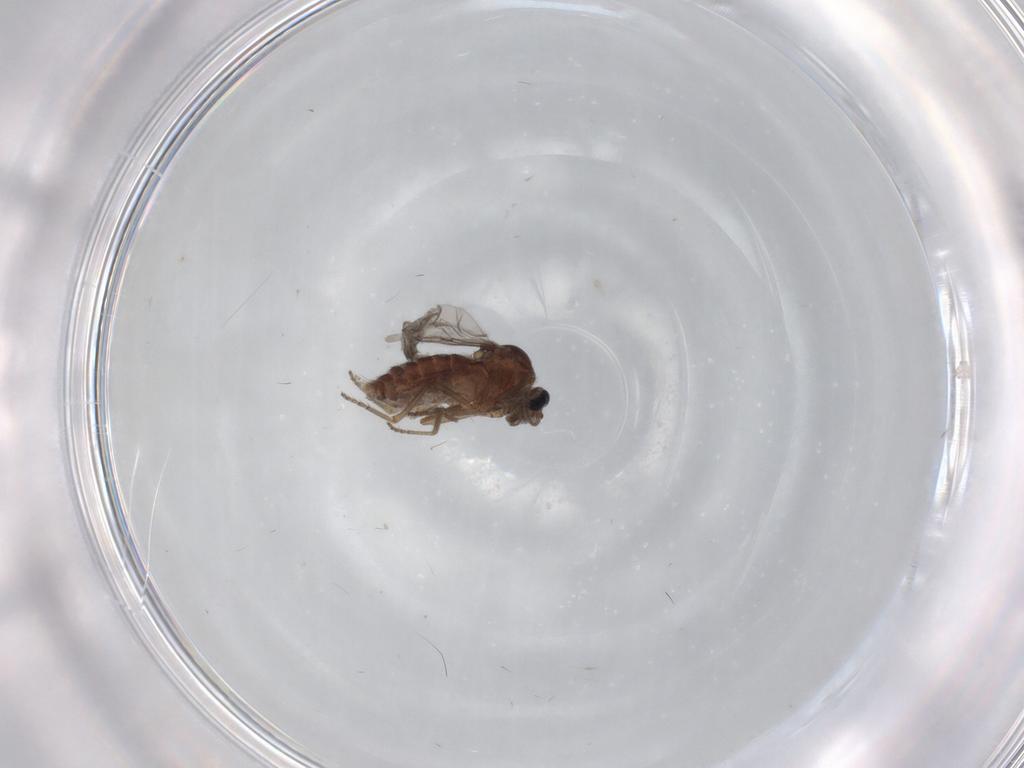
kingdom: Animalia
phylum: Arthropoda
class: Insecta
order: Diptera
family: Ceratopogonidae
